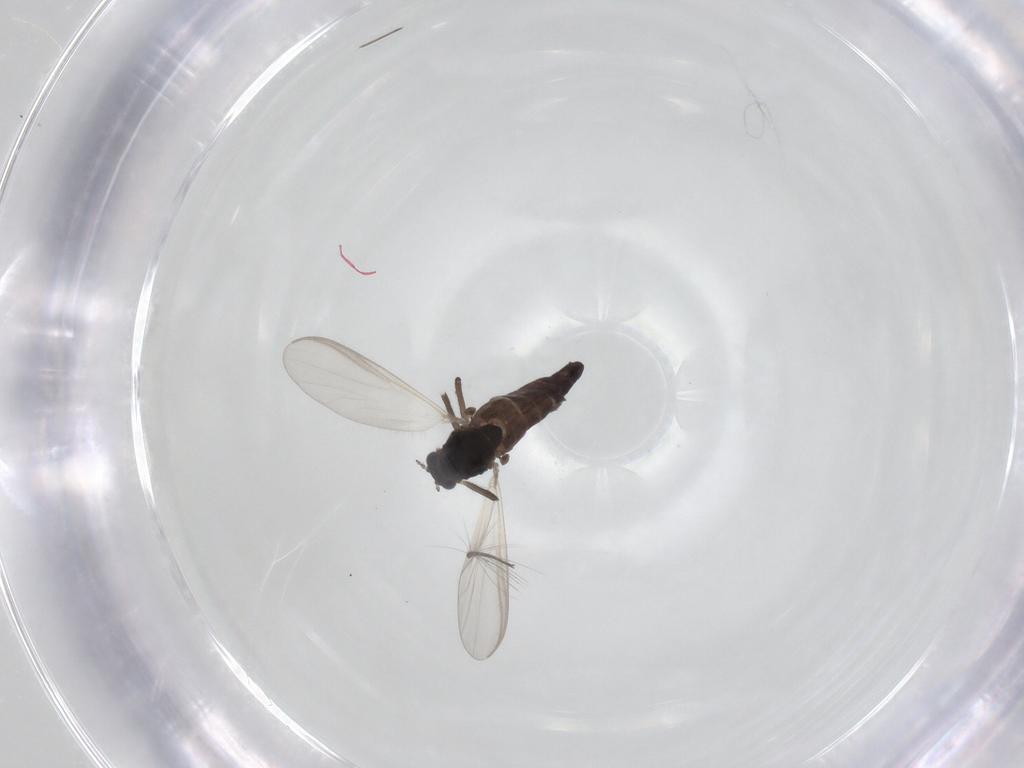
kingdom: Animalia
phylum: Arthropoda
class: Insecta
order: Diptera
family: Chironomidae
